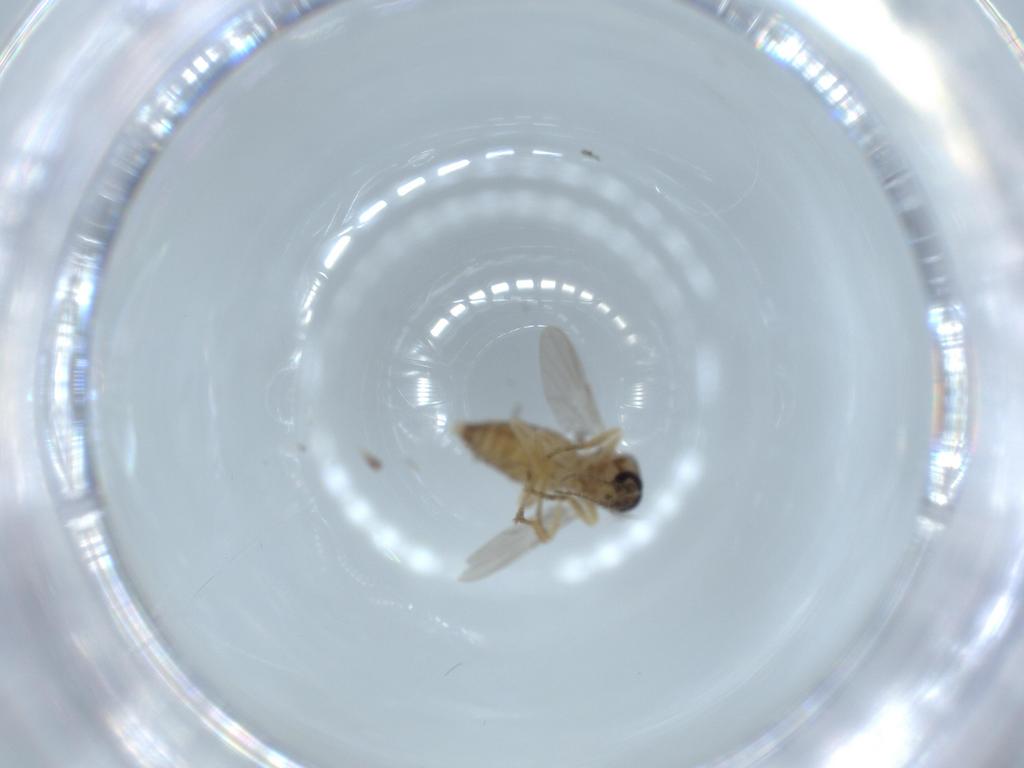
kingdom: Animalia
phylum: Arthropoda
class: Insecta
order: Diptera
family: Ceratopogonidae
